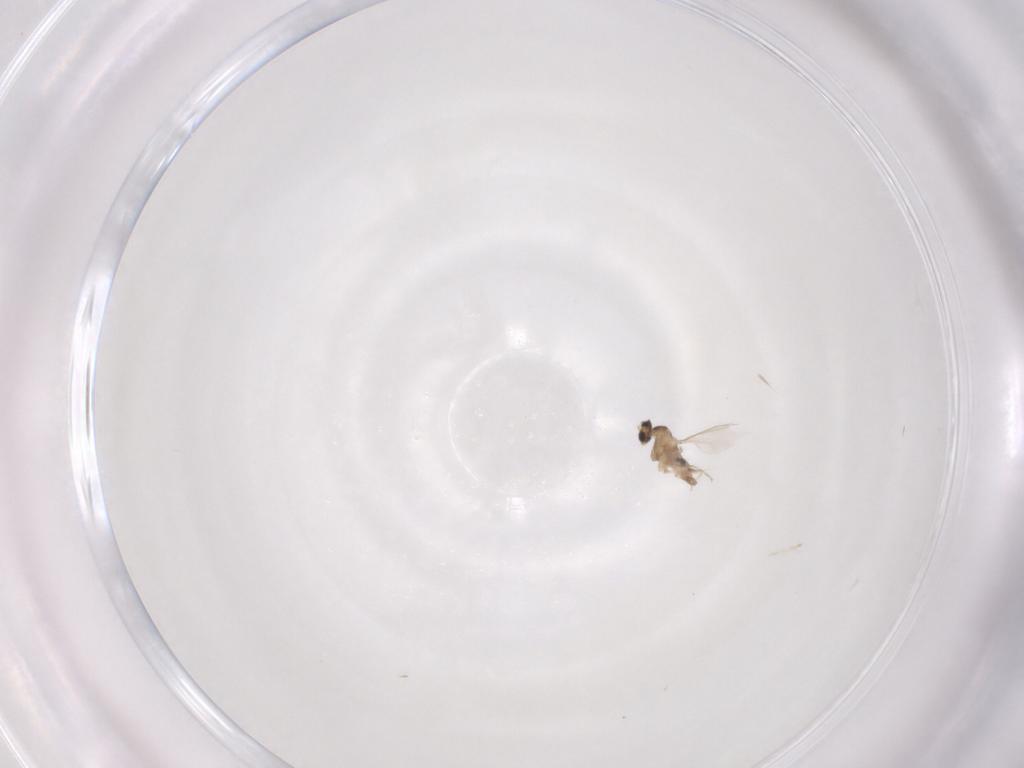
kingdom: Animalia
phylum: Arthropoda
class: Insecta
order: Diptera
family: Cecidomyiidae
